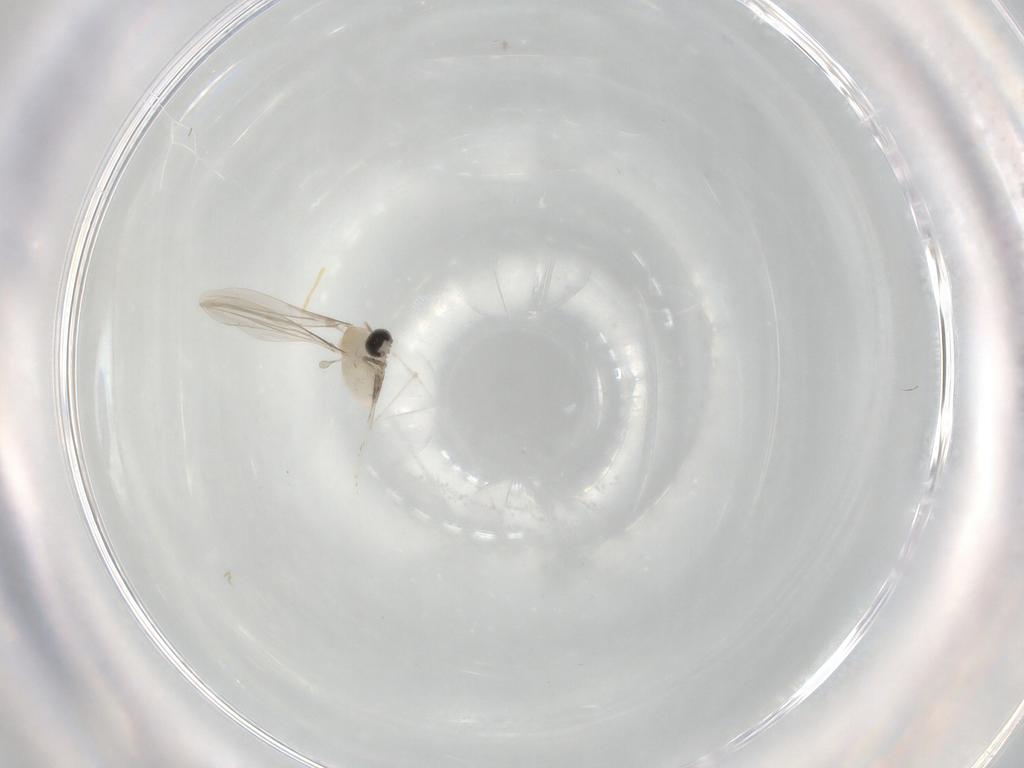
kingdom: Animalia
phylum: Arthropoda
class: Insecta
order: Diptera
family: Cecidomyiidae
